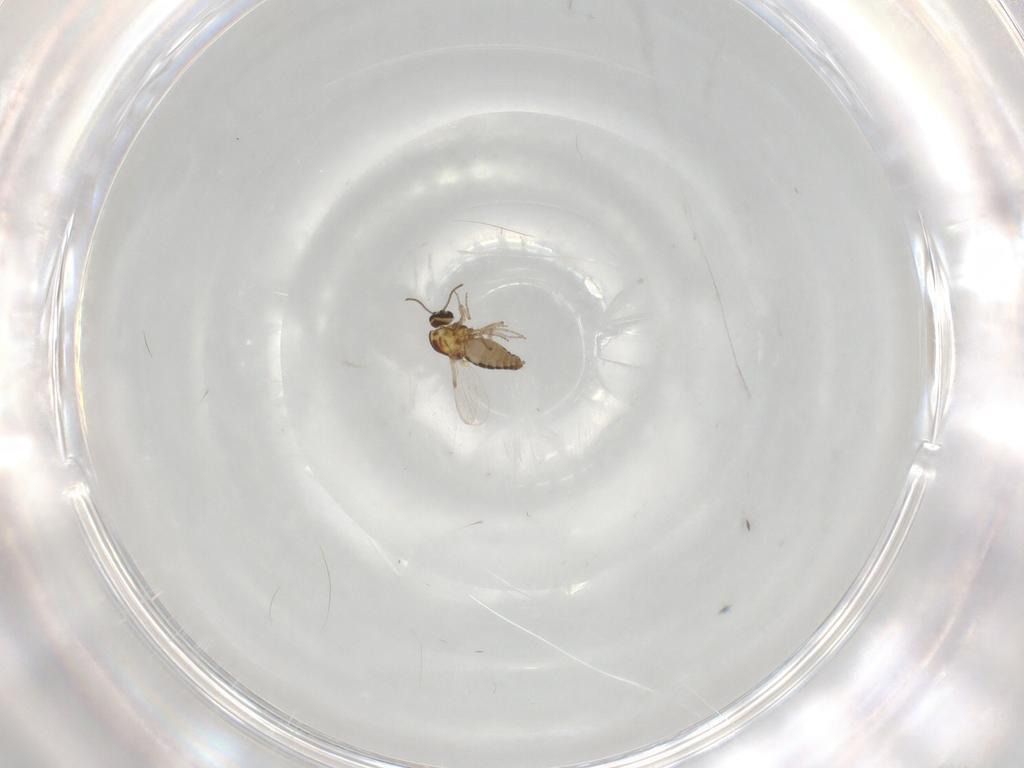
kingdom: Animalia
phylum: Arthropoda
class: Insecta
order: Diptera
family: Ceratopogonidae
